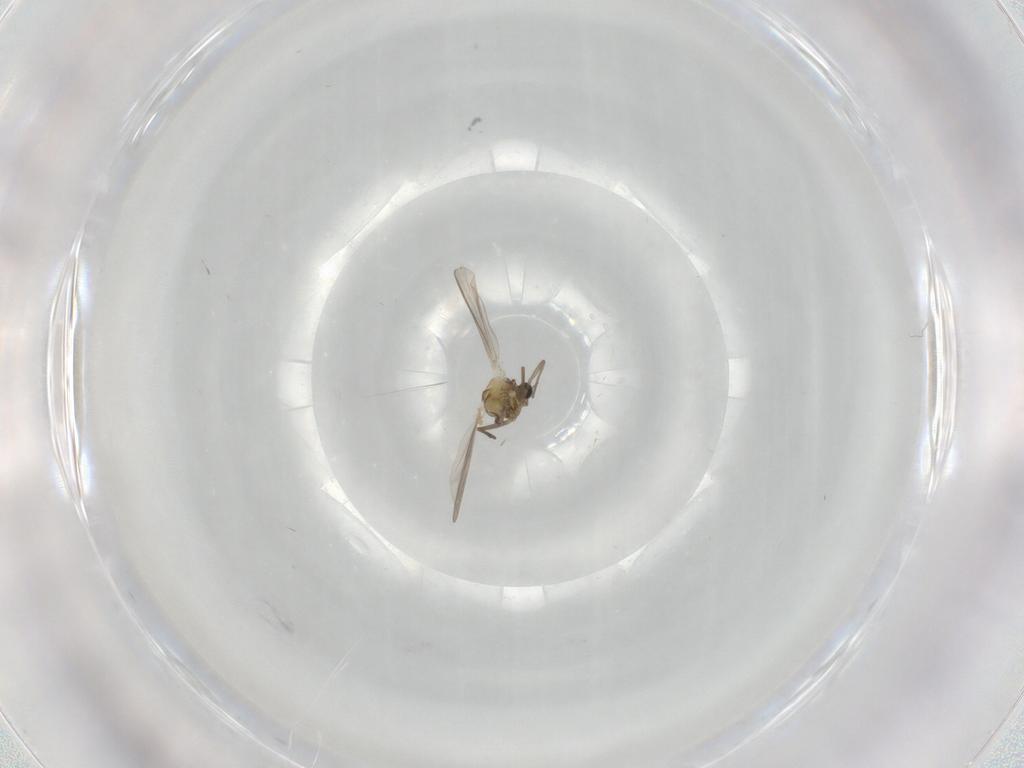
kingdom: Animalia
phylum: Arthropoda
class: Insecta
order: Diptera
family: Chironomidae
